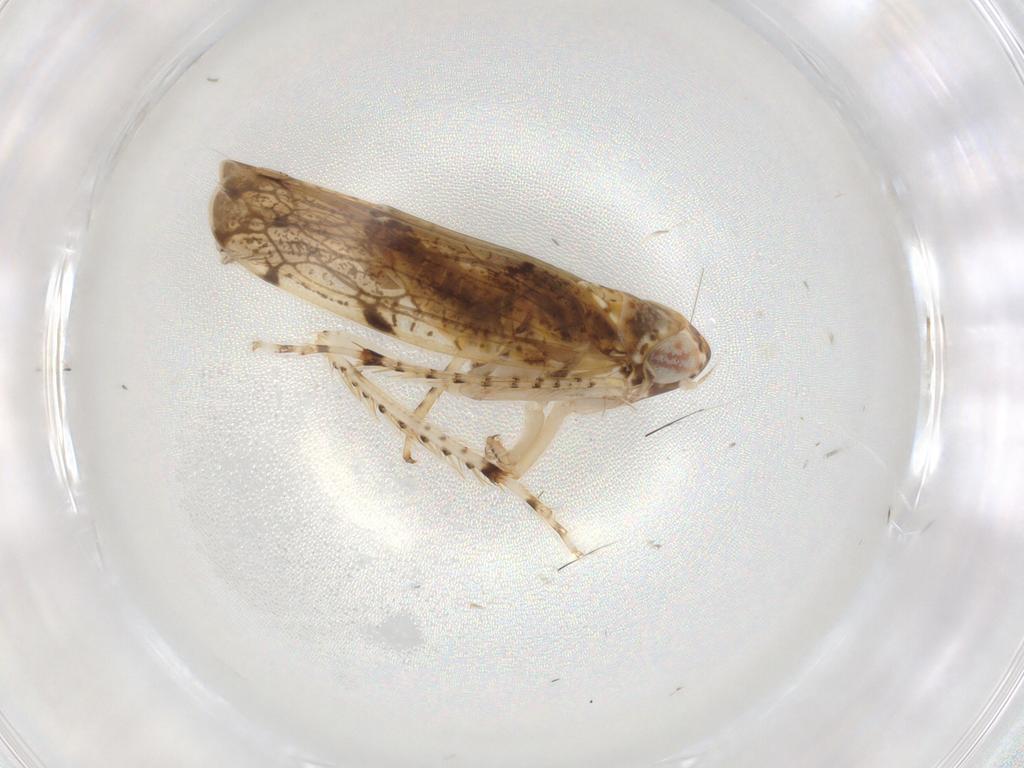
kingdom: Animalia
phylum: Arthropoda
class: Insecta
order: Hemiptera
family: Cicadellidae
